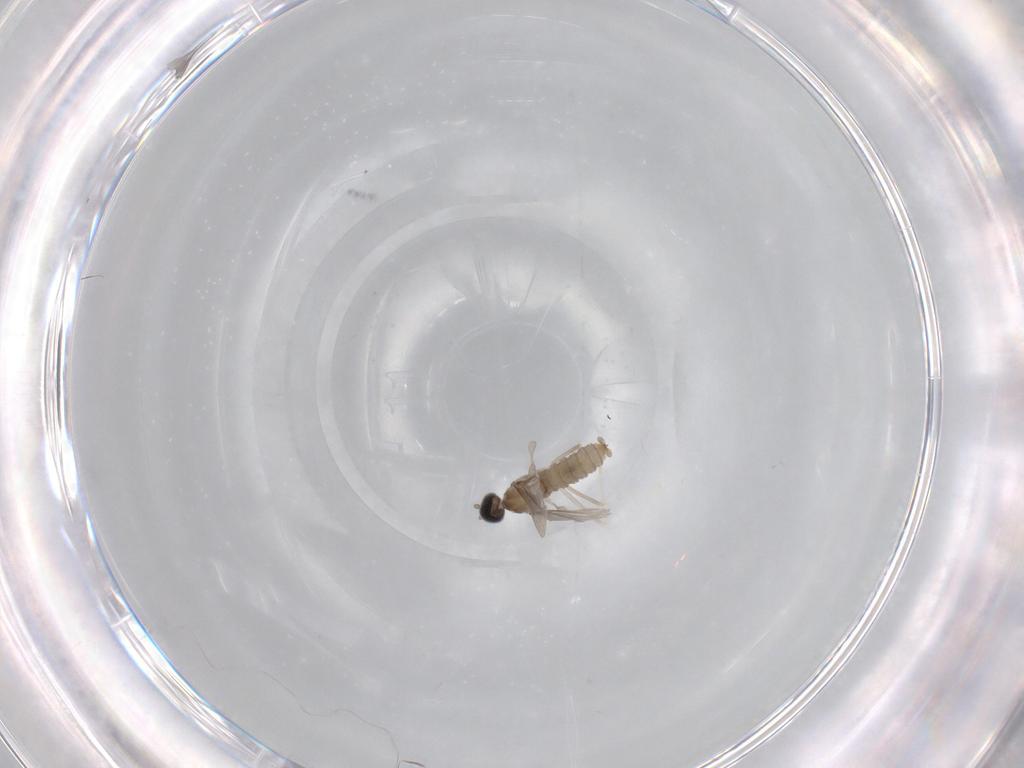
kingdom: Animalia
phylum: Arthropoda
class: Insecta
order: Diptera
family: Cecidomyiidae
